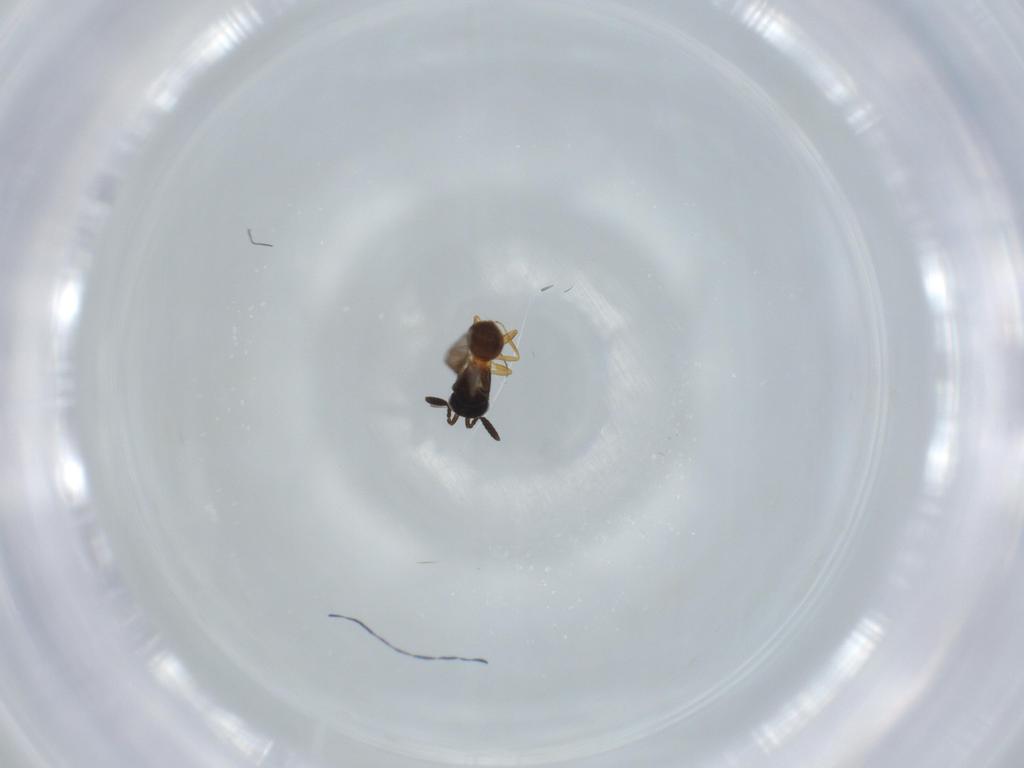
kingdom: Animalia
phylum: Arthropoda
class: Insecta
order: Hymenoptera
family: Scelionidae
